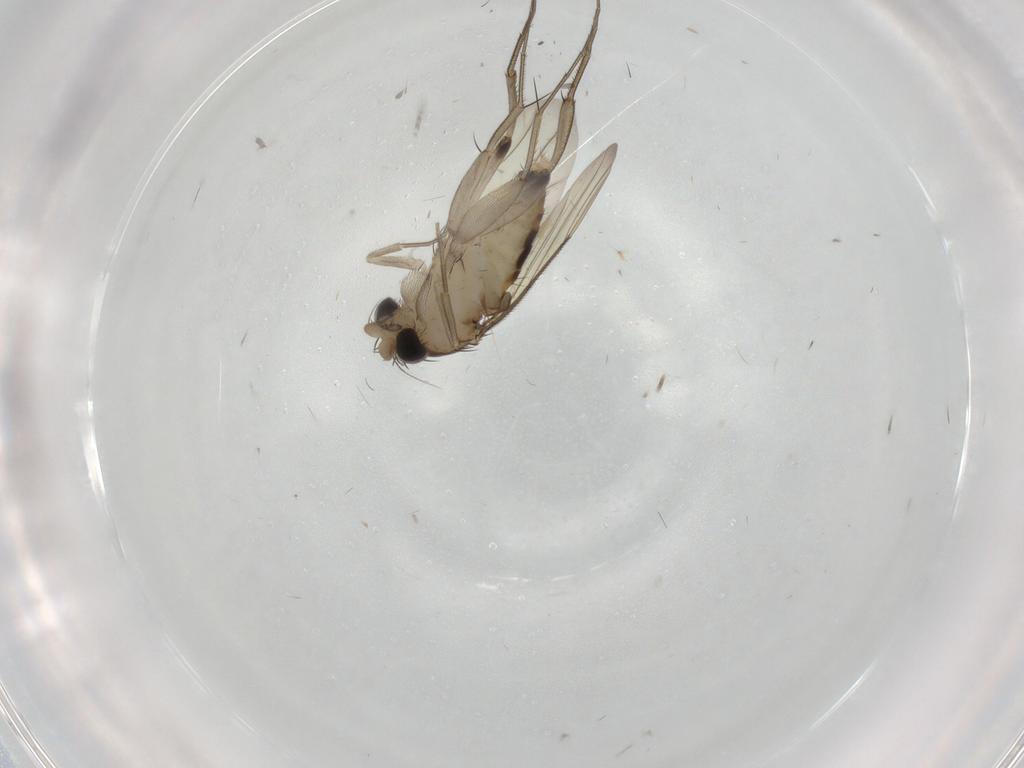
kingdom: Animalia
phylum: Arthropoda
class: Insecta
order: Diptera
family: Phoridae
